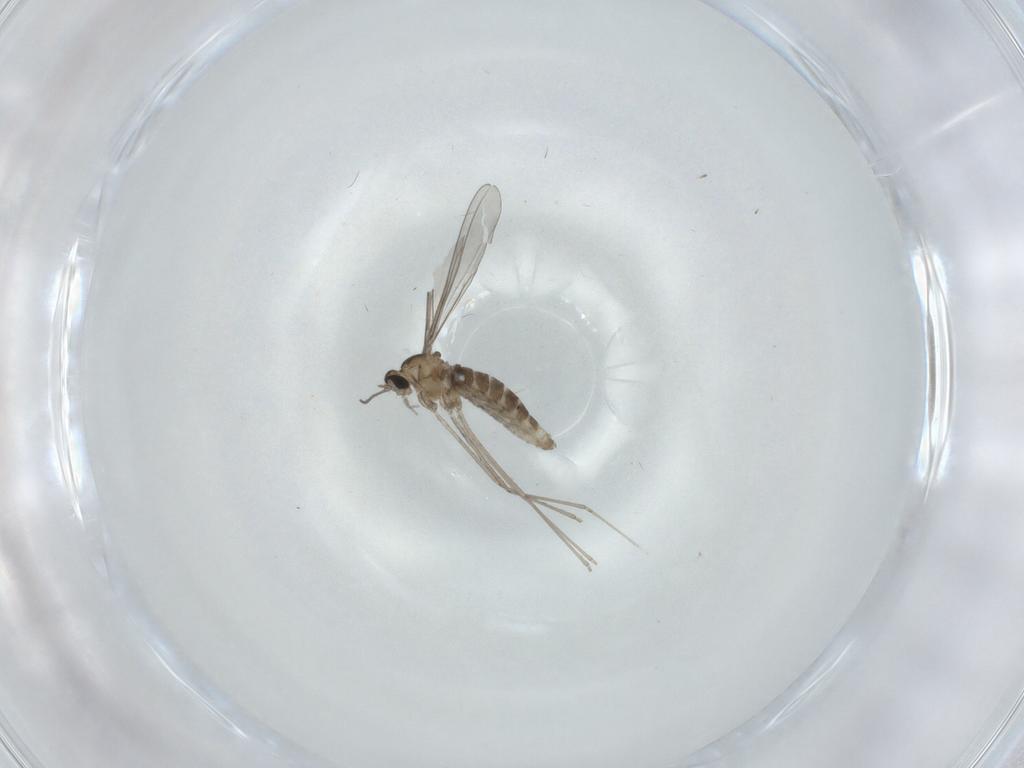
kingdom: Animalia
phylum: Arthropoda
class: Insecta
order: Diptera
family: Cecidomyiidae
